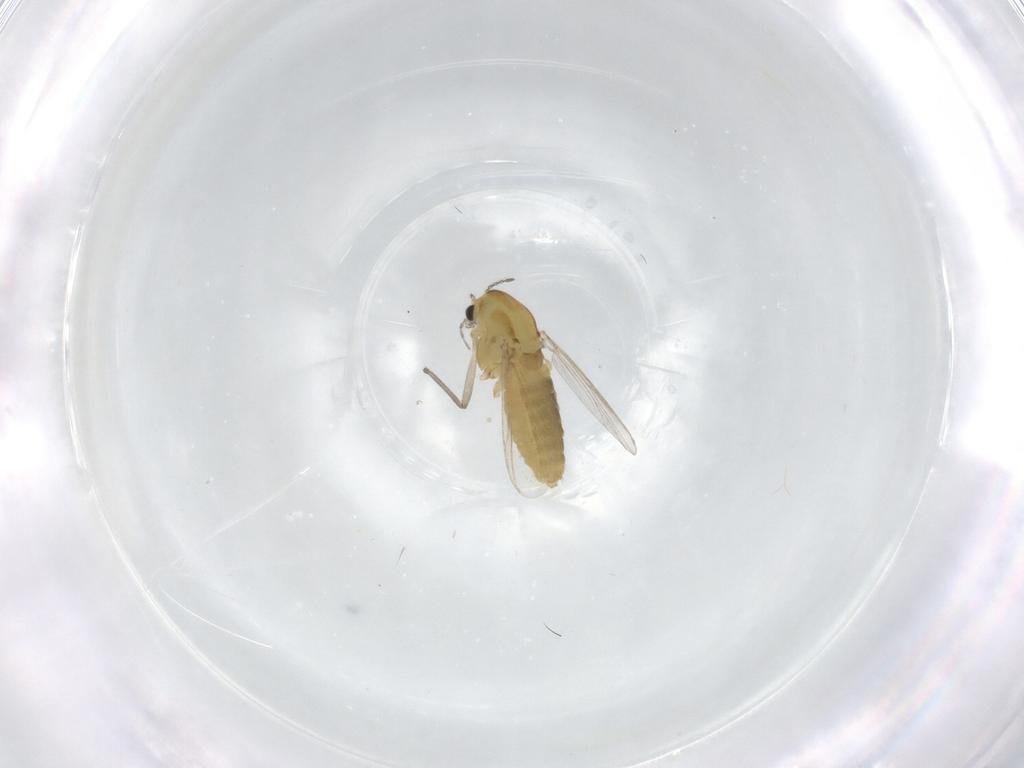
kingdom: Animalia
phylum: Arthropoda
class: Insecta
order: Diptera
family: Chironomidae
